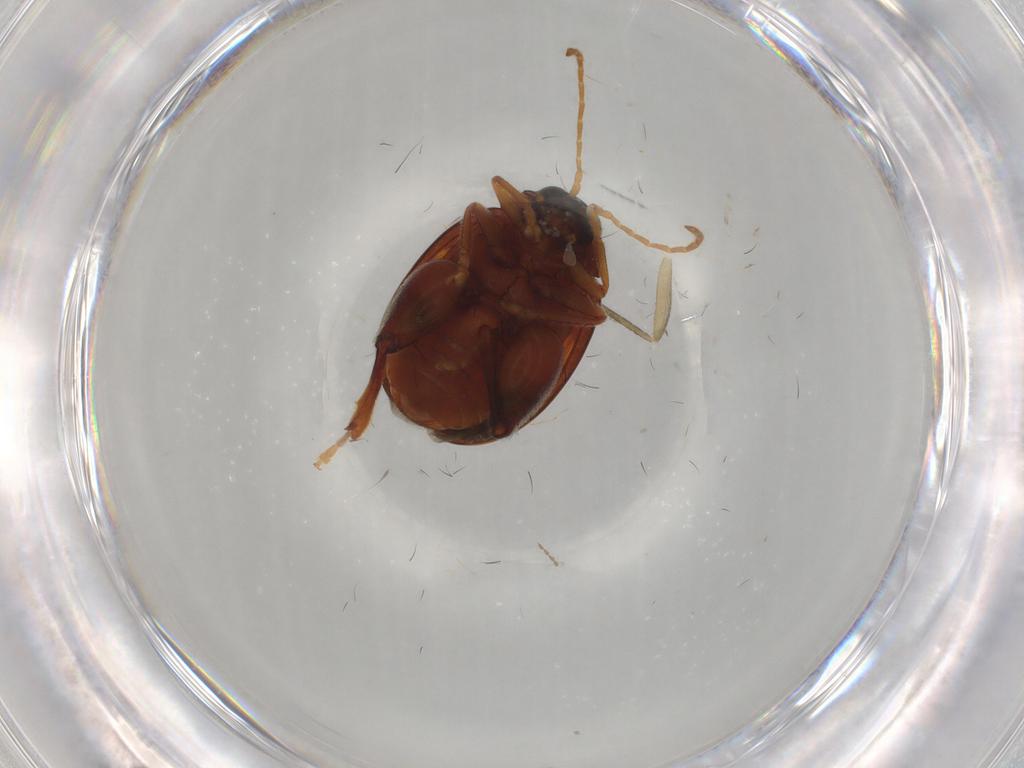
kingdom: Animalia
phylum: Arthropoda
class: Insecta
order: Coleoptera
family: Chrysomelidae
